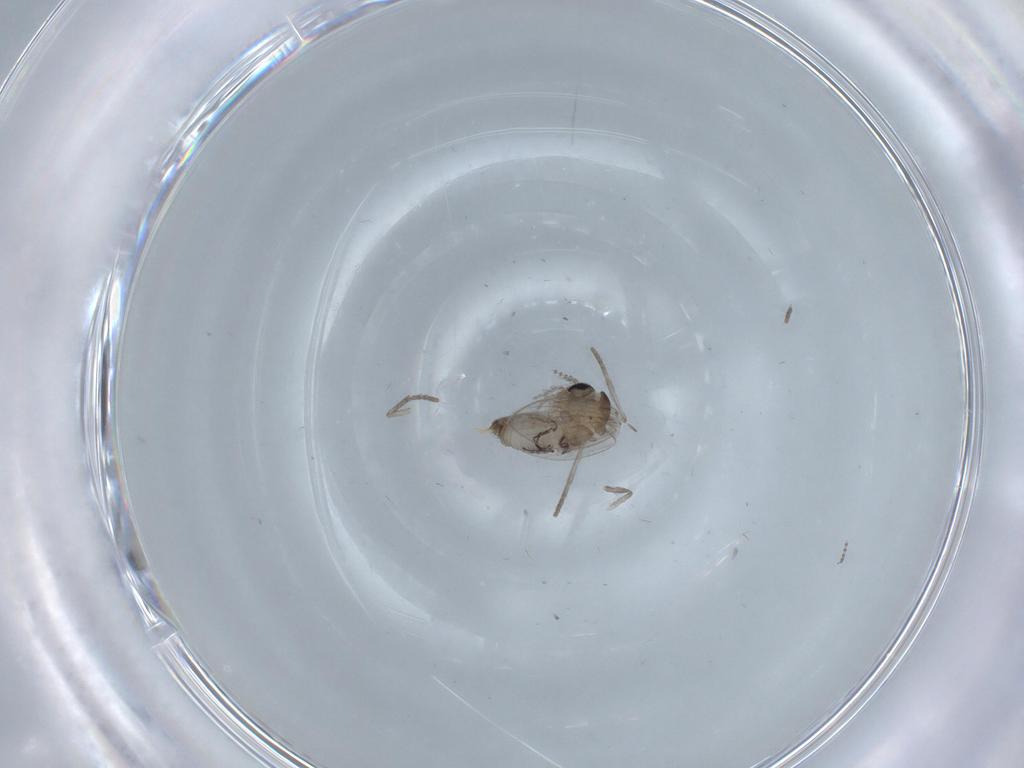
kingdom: Animalia
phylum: Arthropoda
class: Insecta
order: Diptera
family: Psychodidae
